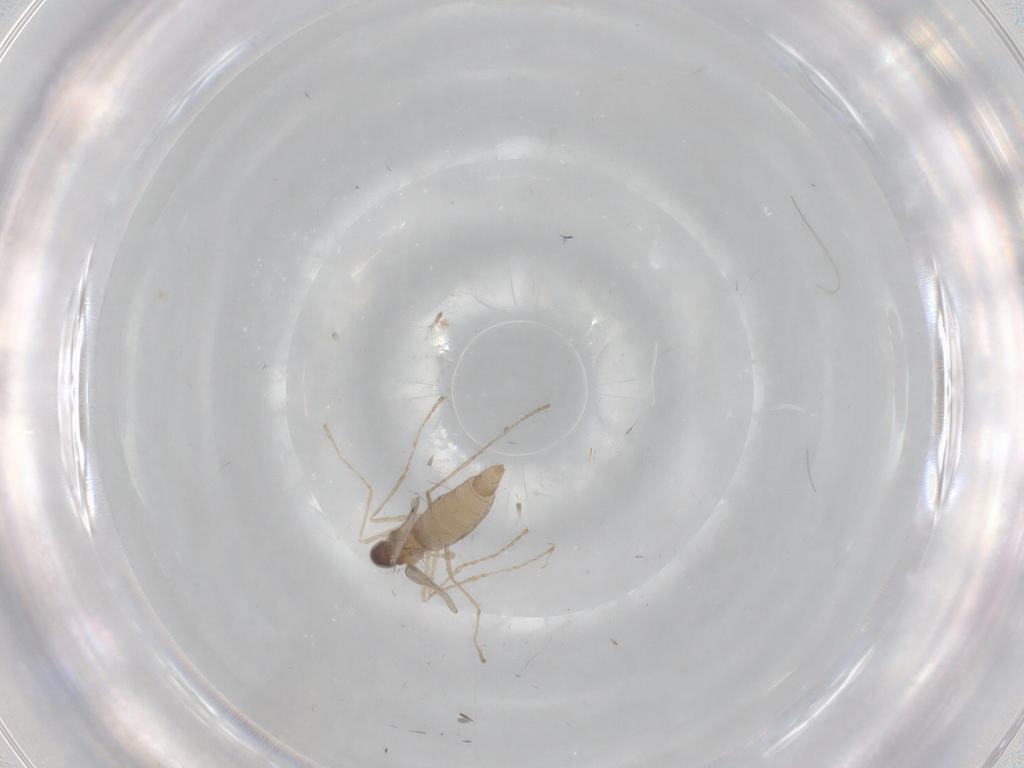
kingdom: Animalia
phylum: Arthropoda
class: Insecta
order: Diptera
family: Cecidomyiidae
